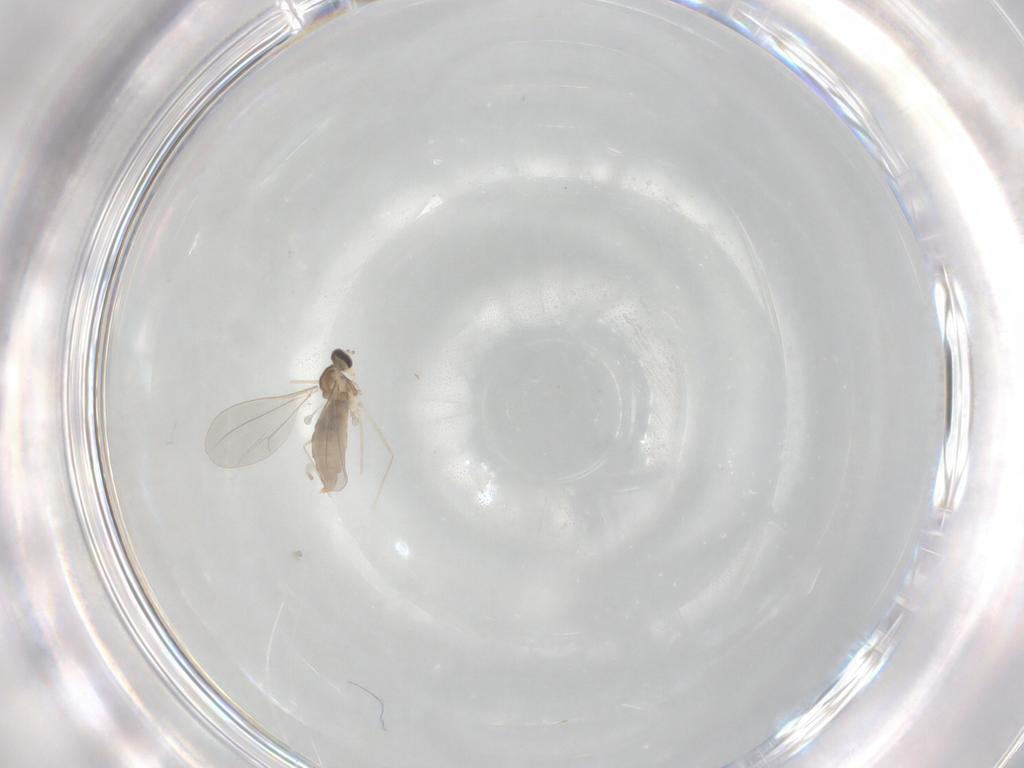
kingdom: Animalia
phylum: Arthropoda
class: Insecta
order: Diptera
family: Cecidomyiidae
